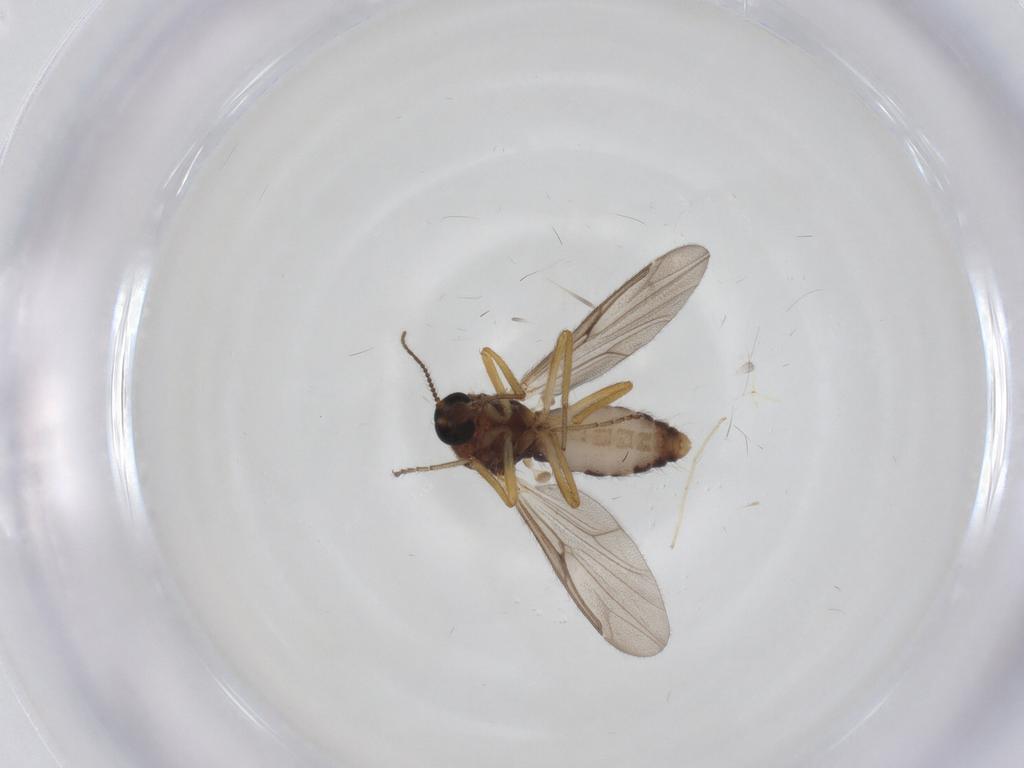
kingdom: Animalia
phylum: Arthropoda
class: Insecta
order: Diptera
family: Ceratopogonidae
